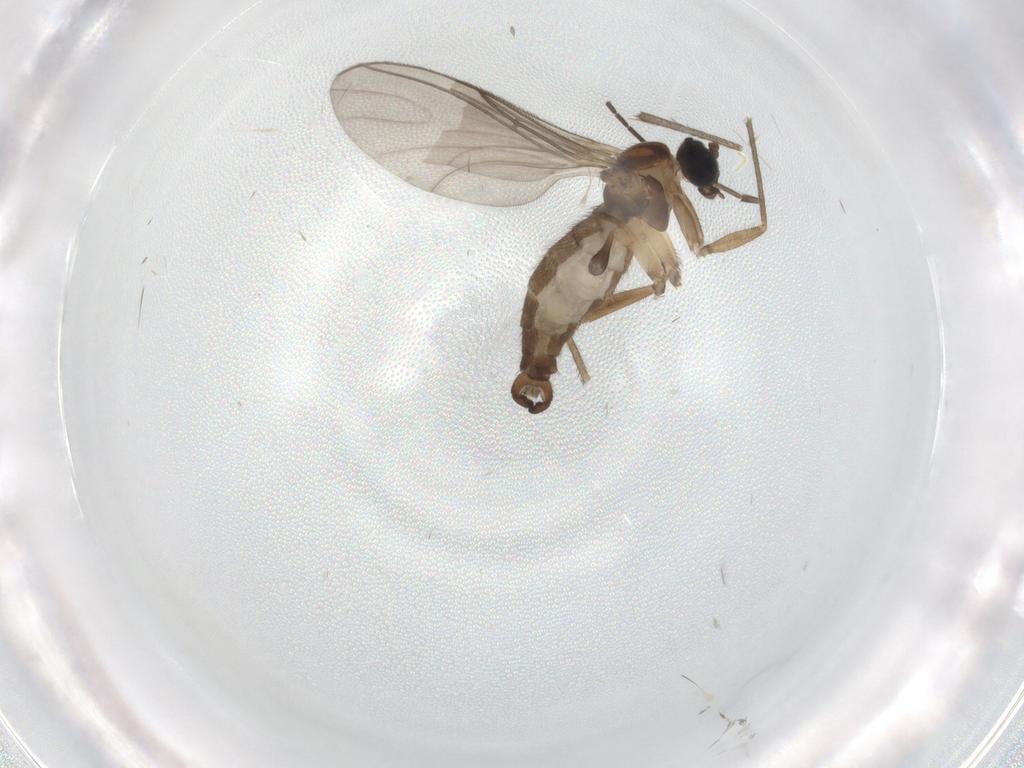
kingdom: Animalia
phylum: Arthropoda
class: Insecta
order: Diptera
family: Sciaridae
